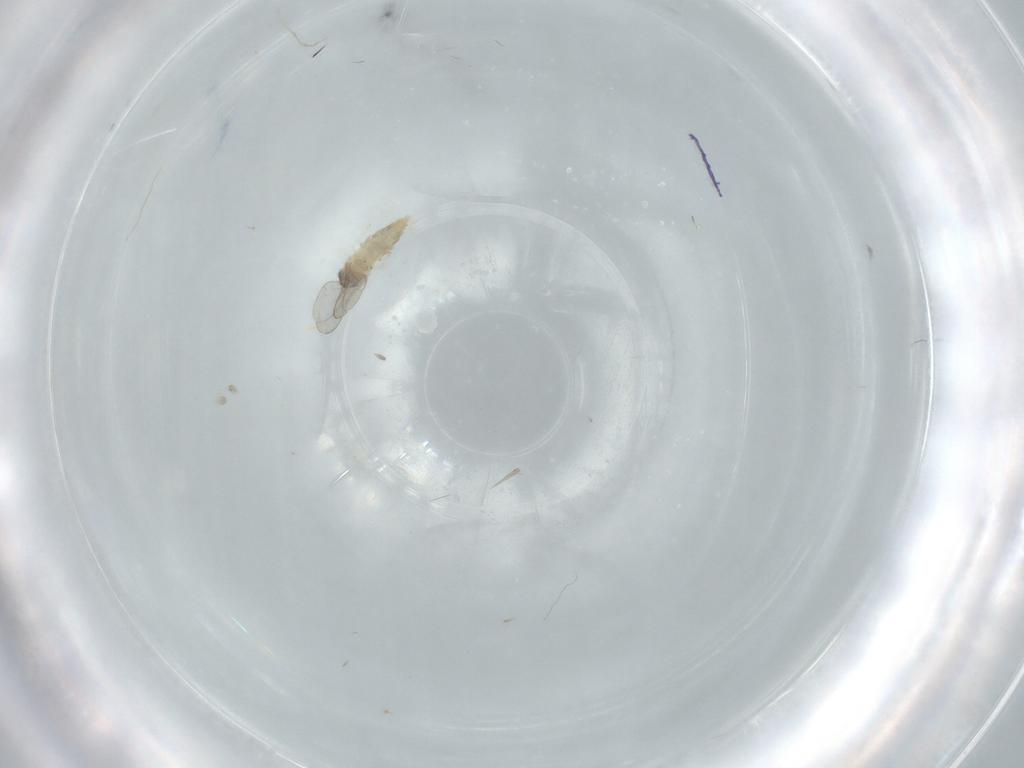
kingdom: Animalia
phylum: Arthropoda
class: Insecta
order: Diptera
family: Cecidomyiidae
